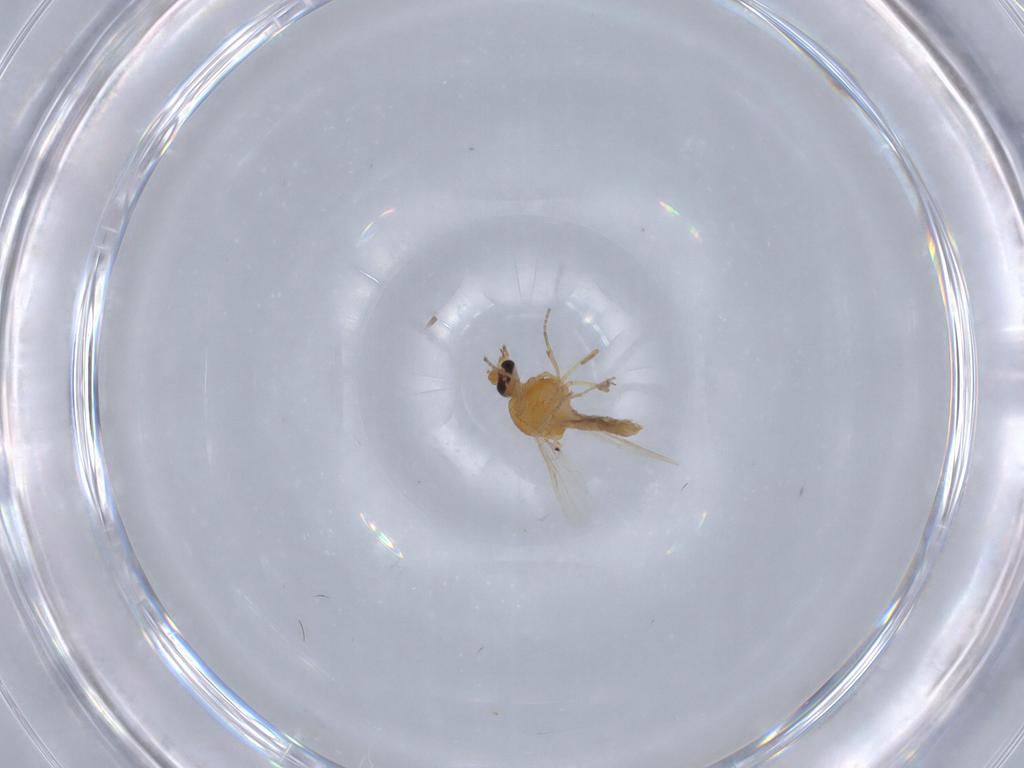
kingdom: Animalia
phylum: Arthropoda
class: Insecta
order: Diptera
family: Ceratopogonidae
